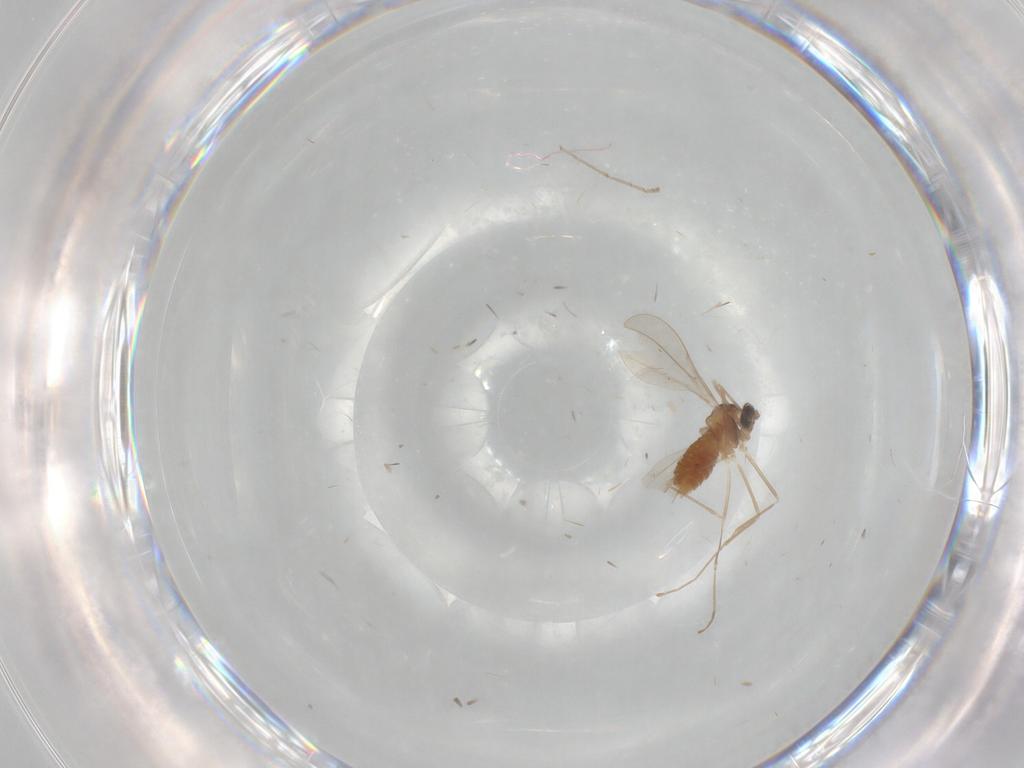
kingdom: Animalia
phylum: Arthropoda
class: Insecta
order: Diptera
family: Cecidomyiidae
